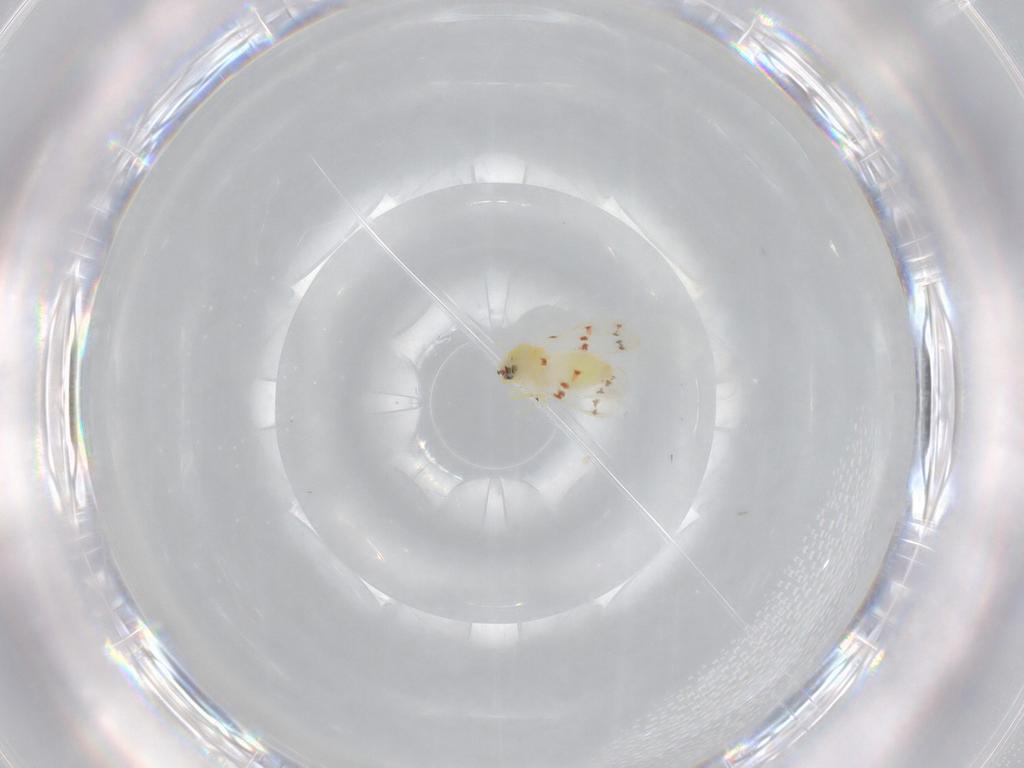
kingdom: Animalia
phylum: Arthropoda
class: Insecta
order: Hemiptera
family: Aleyrodidae
